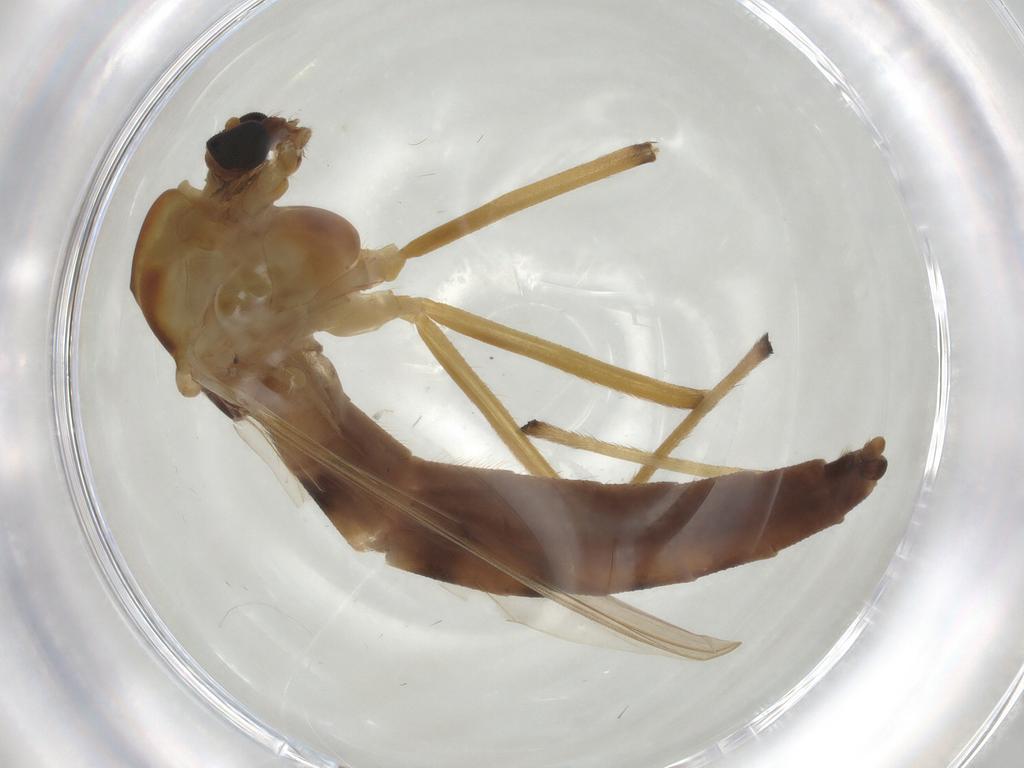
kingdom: Animalia
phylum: Arthropoda
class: Insecta
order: Diptera
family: Chironomidae
